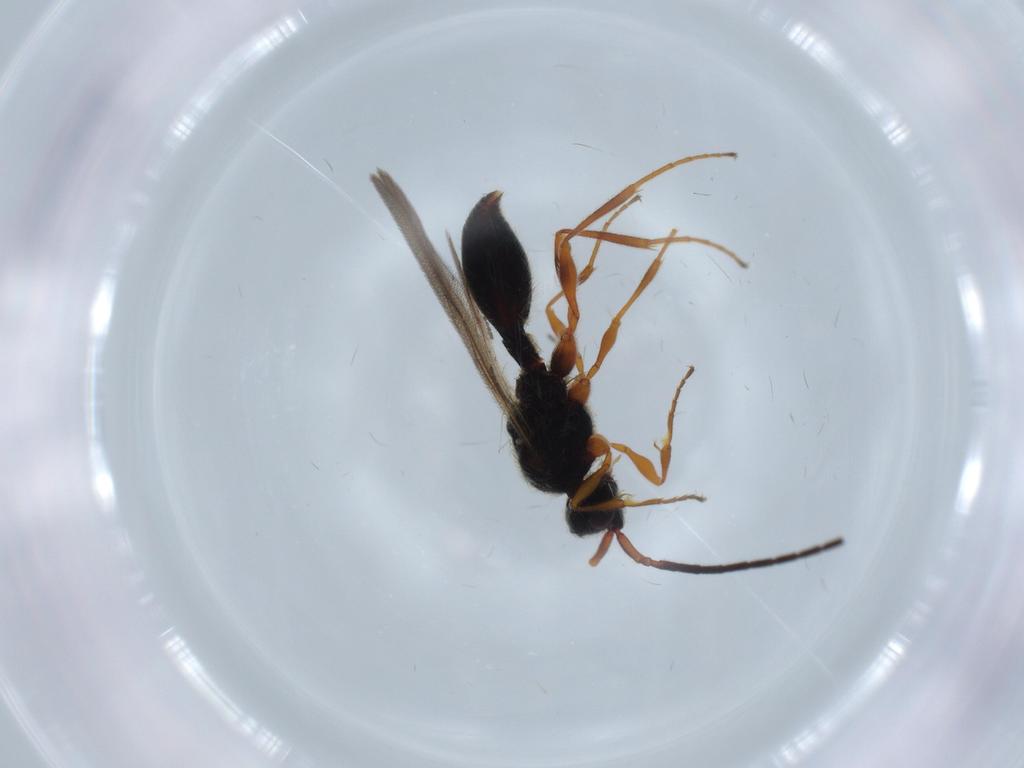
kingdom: Animalia
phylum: Arthropoda
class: Insecta
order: Hymenoptera
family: Diapriidae
